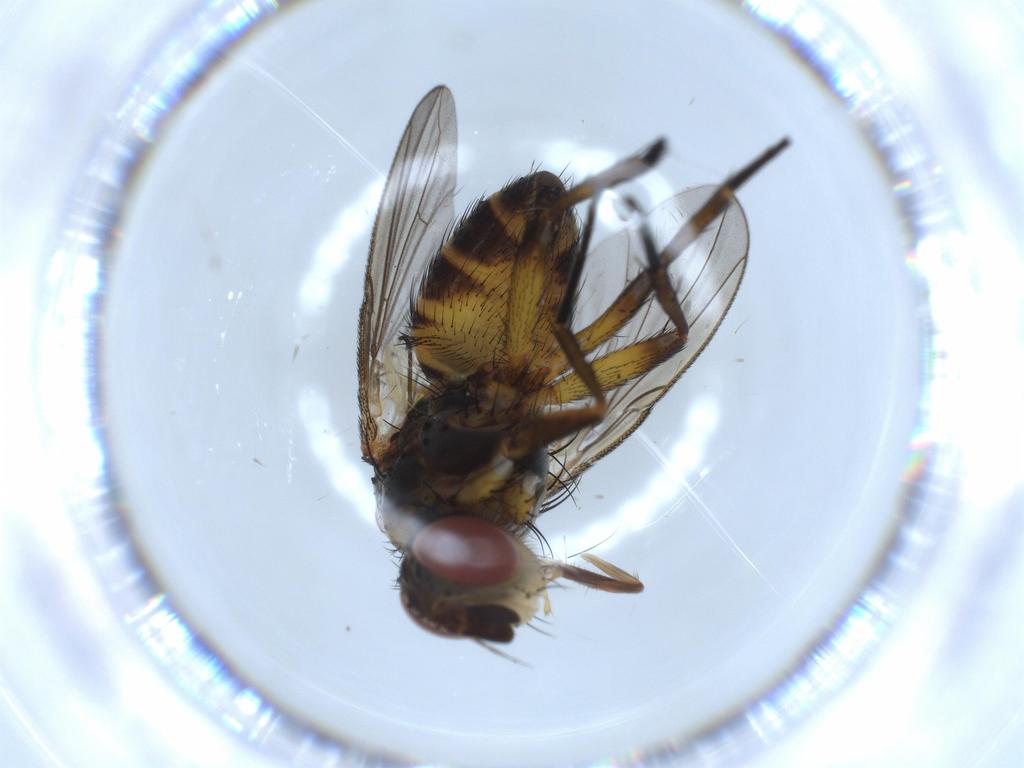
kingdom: Animalia
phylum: Arthropoda
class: Insecta
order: Diptera
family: Tachinidae
